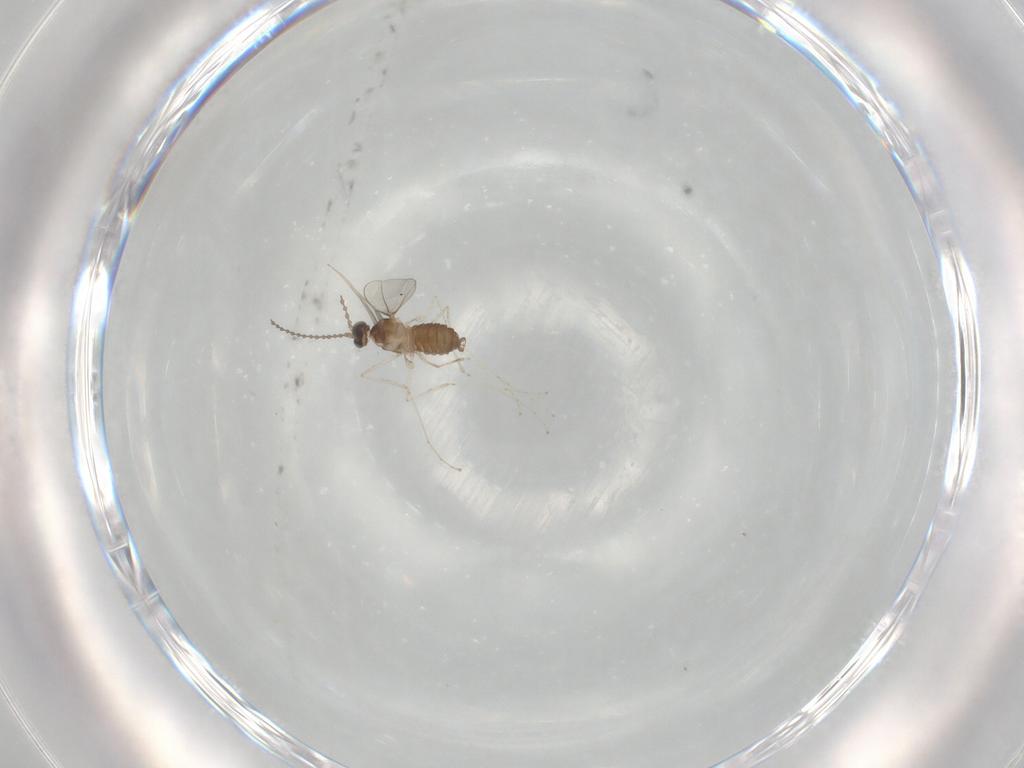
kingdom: Animalia
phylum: Arthropoda
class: Insecta
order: Diptera
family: Cecidomyiidae
